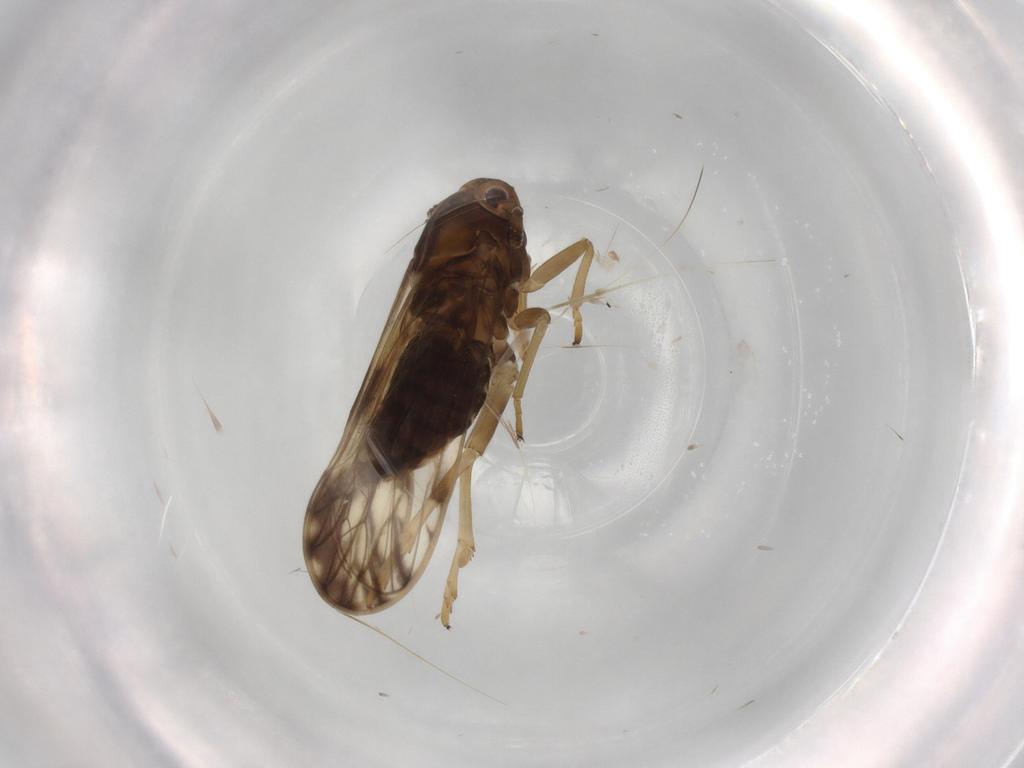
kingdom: Animalia
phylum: Arthropoda
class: Insecta
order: Hemiptera
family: Delphacidae
